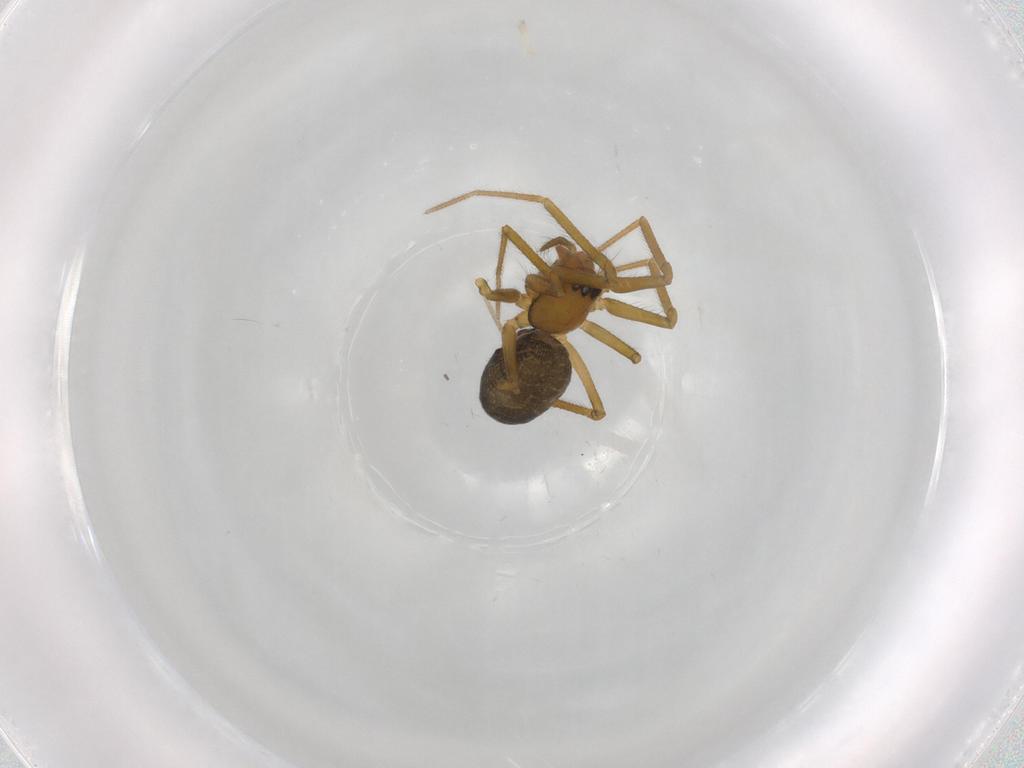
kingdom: Animalia
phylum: Arthropoda
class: Arachnida
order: Araneae
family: Linyphiidae
